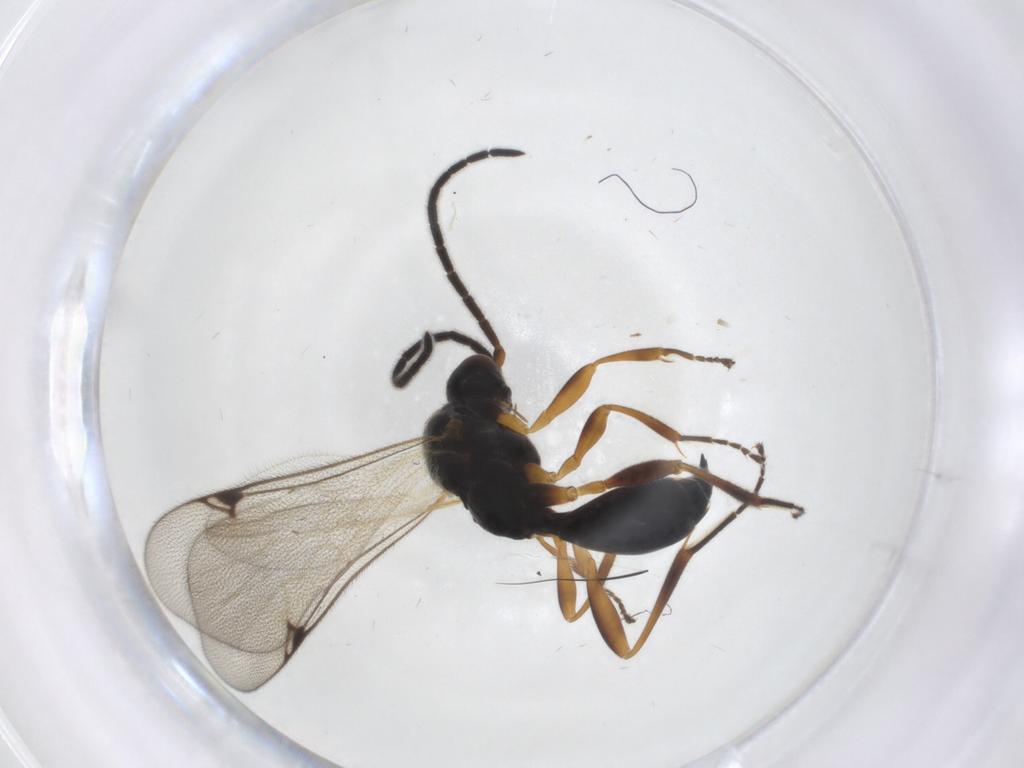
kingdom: Animalia
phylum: Arthropoda
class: Insecta
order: Hymenoptera
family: Proctotrupidae
